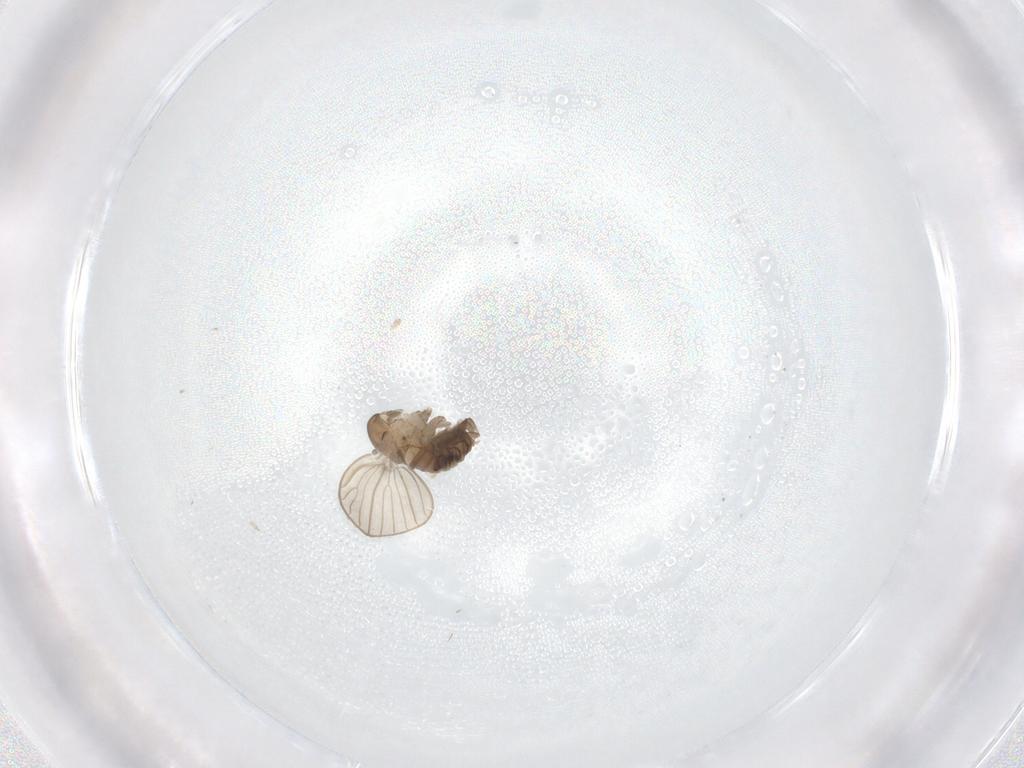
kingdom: Animalia
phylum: Arthropoda
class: Insecta
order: Diptera
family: Psychodidae
